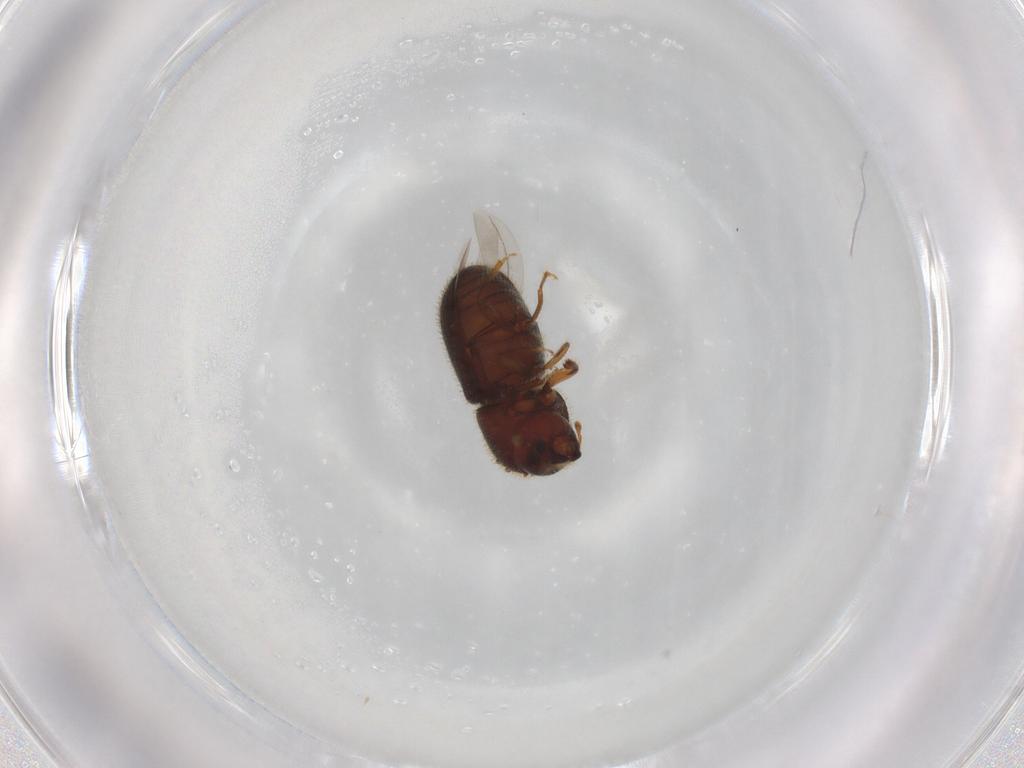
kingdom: Animalia
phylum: Arthropoda
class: Insecta
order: Coleoptera
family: Curculionidae
